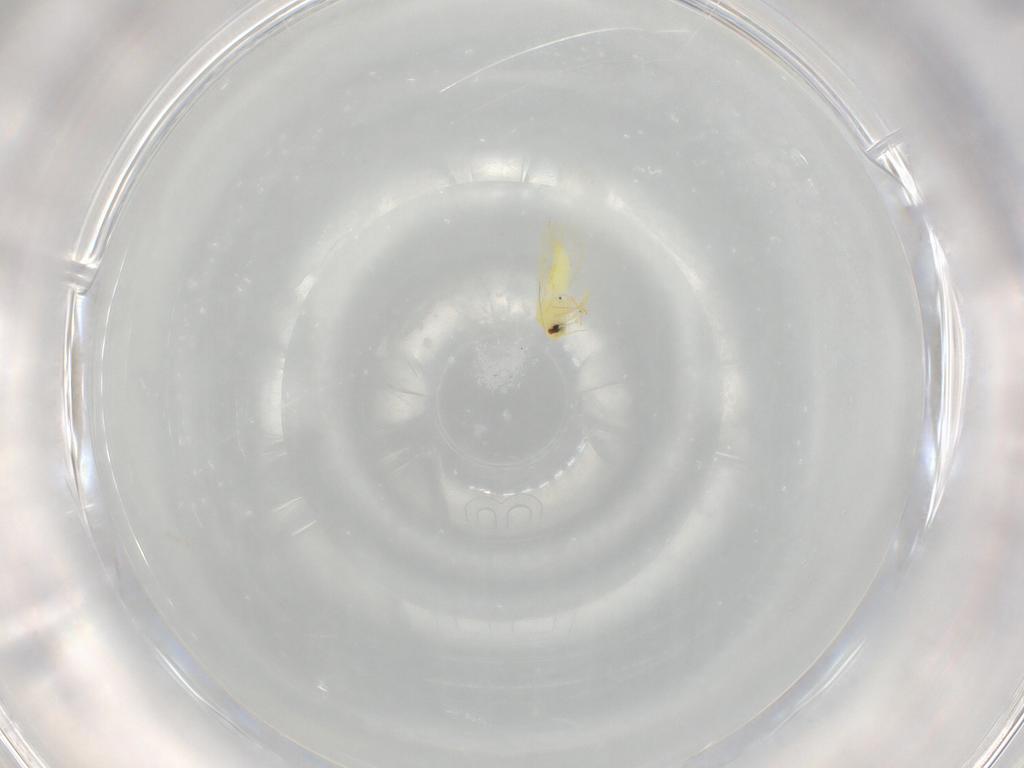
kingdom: Animalia
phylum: Arthropoda
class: Insecta
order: Hemiptera
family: Aleyrodidae
